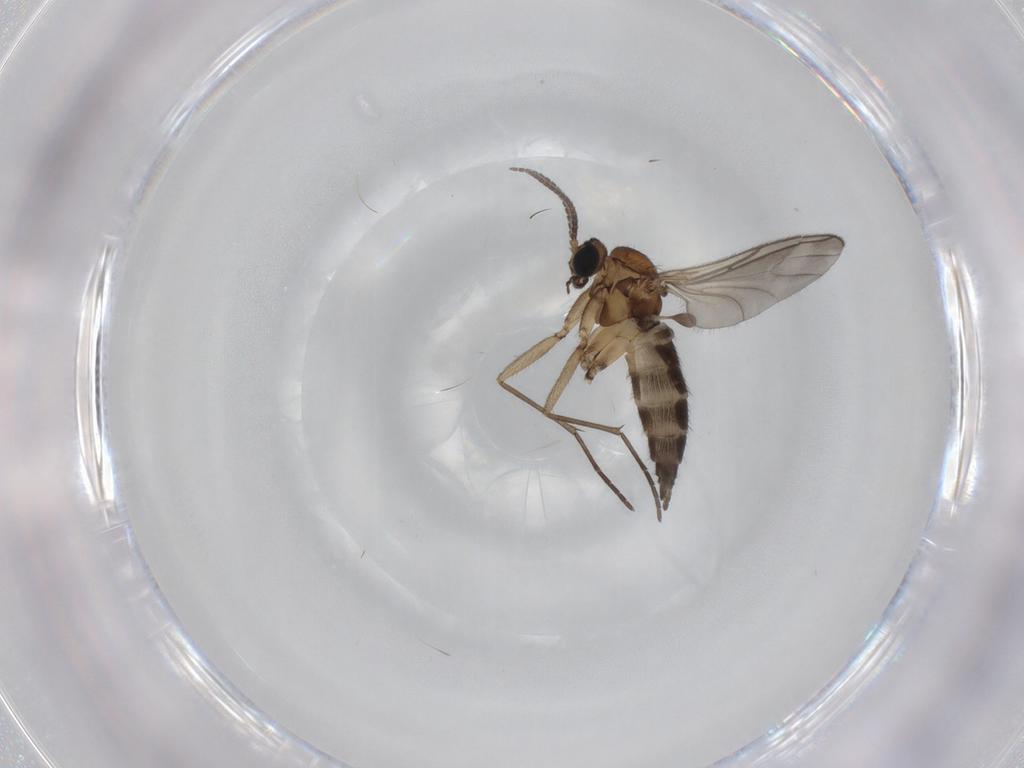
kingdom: Animalia
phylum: Arthropoda
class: Insecta
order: Diptera
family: Sciaridae
